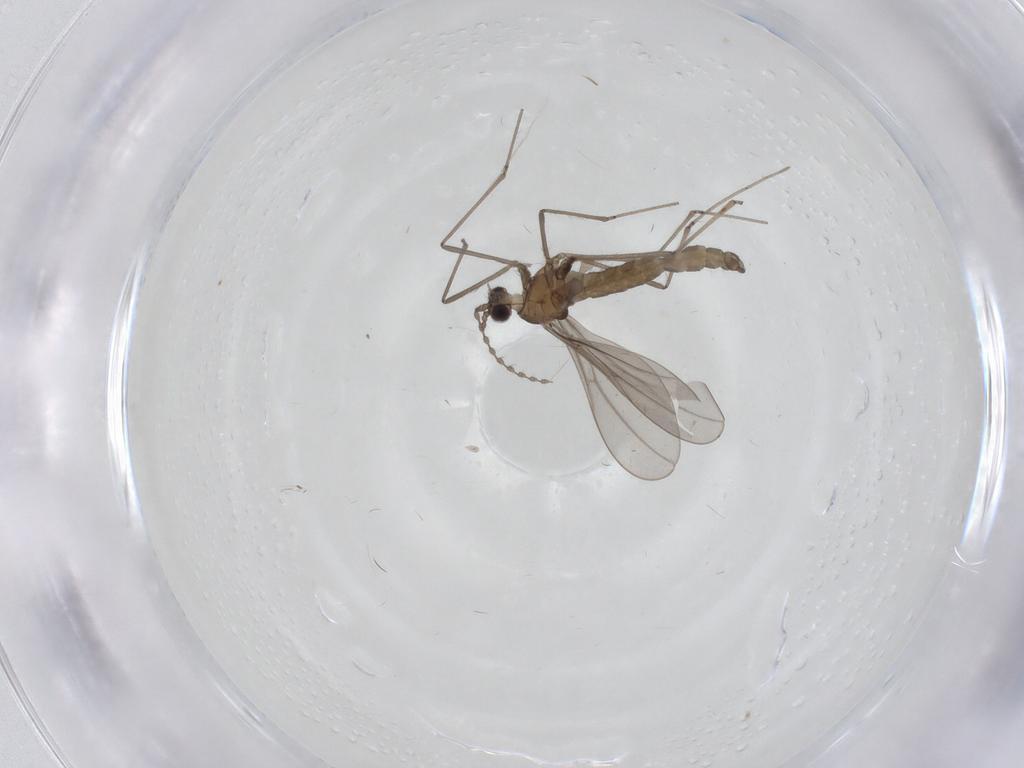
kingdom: Animalia
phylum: Arthropoda
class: Insecta
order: Diptera
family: Cecidomyiidae
